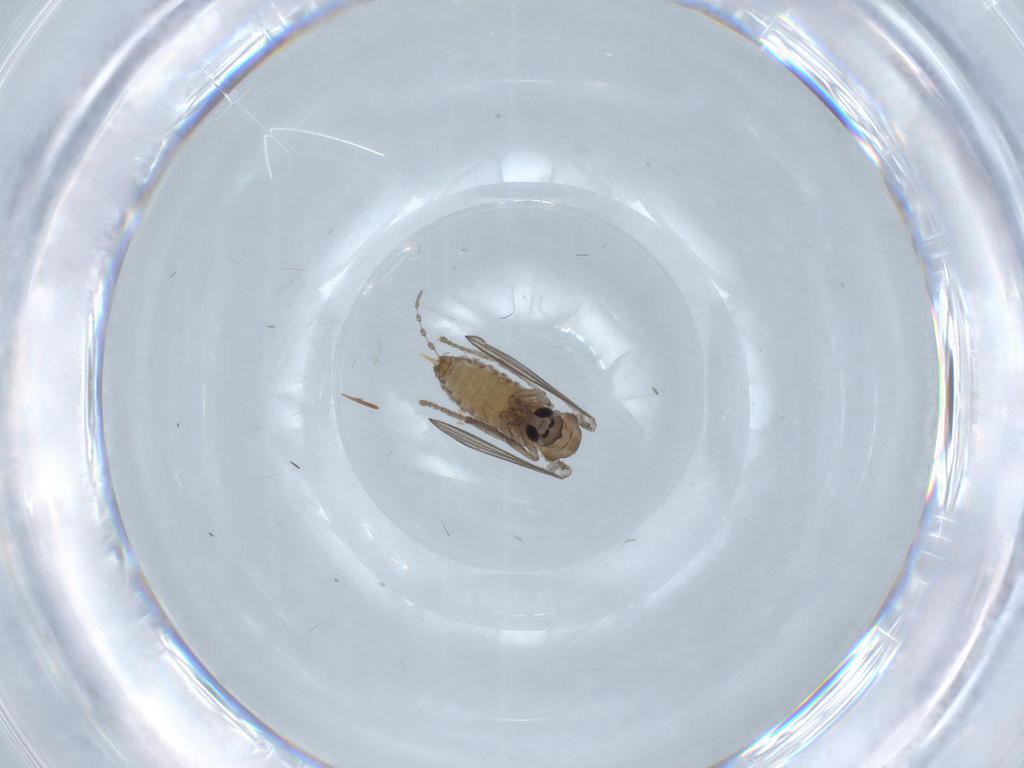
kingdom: Animalia
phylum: Arthropoda
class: Insecta
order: Diptera
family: Psychodidae
